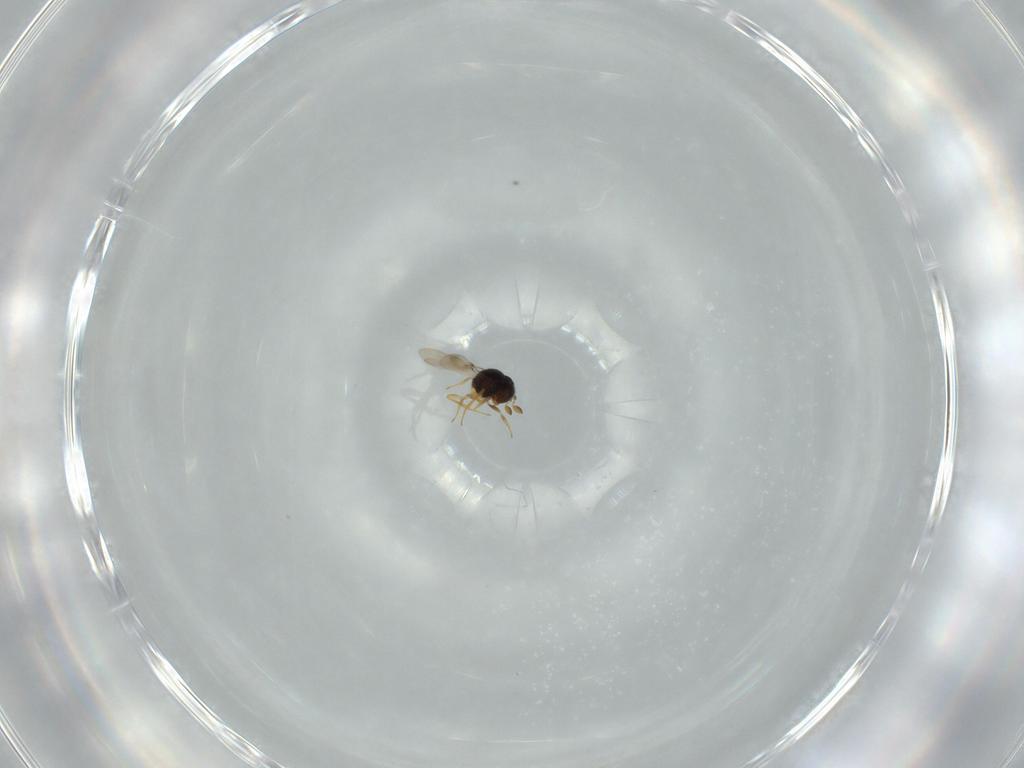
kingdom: Animalia
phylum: Arthropoda
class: Insecta
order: Hymenoptera
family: Scelionidae
